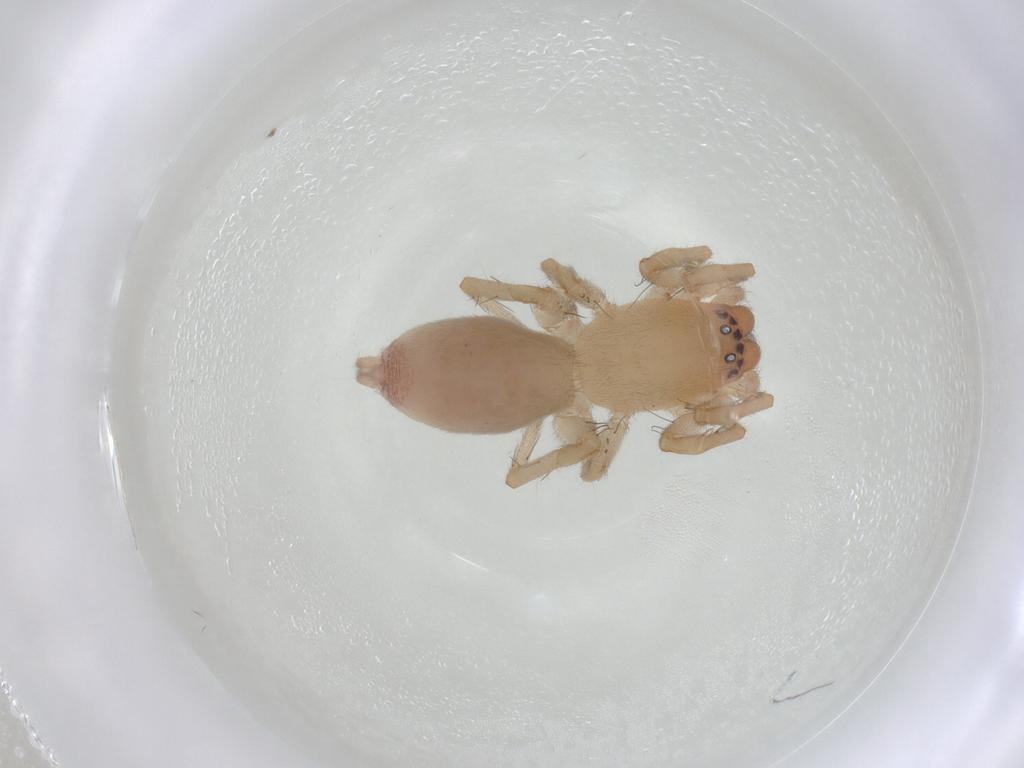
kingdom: Animalia
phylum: Arthropoda
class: Arachnida
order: Araneae
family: Clubionidae
